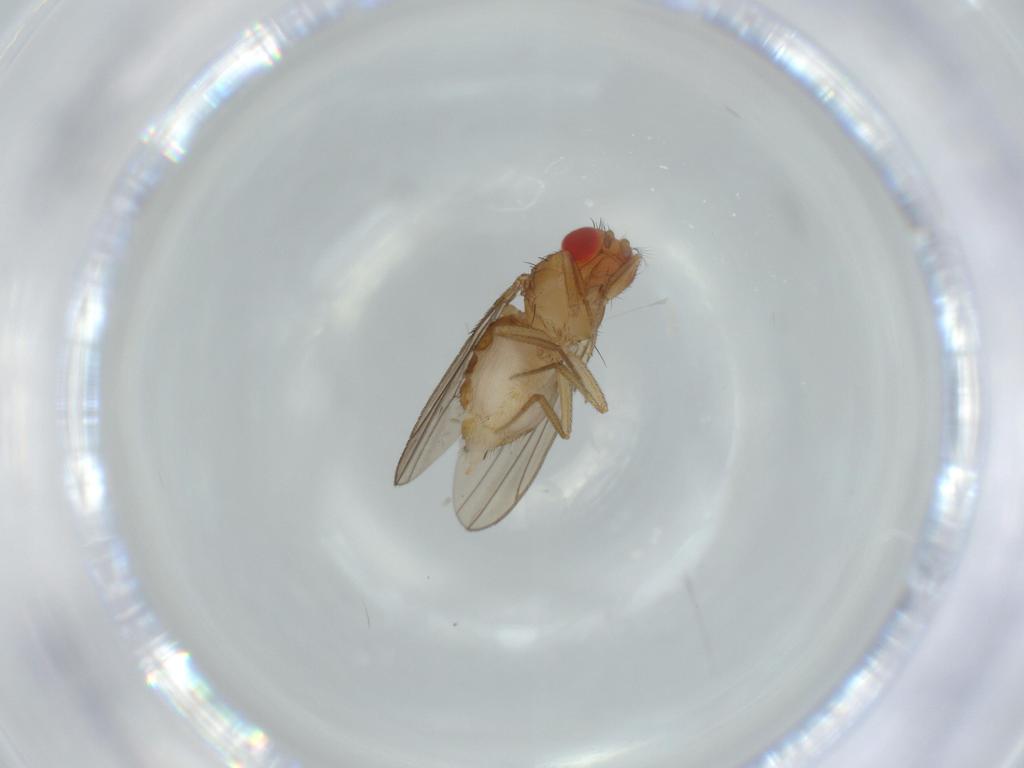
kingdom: Animalia
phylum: Arthropoda
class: Insecta
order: Diptera
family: Drosophilidae
